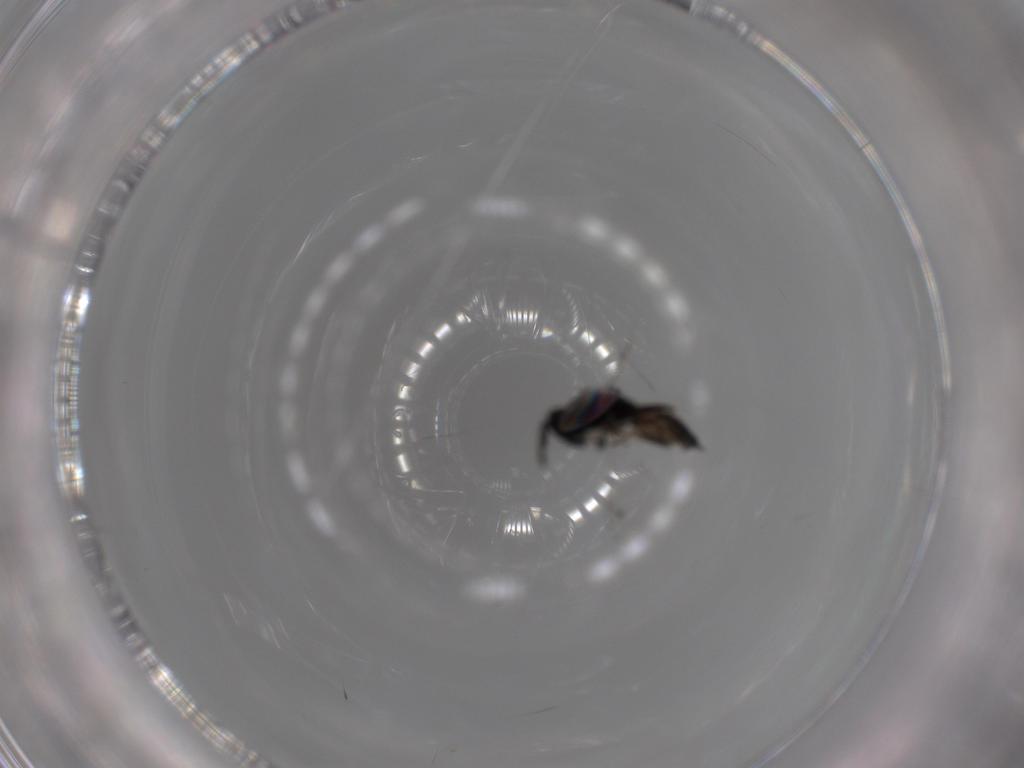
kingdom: Animalia
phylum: Arthropoda
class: Insecta
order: Hymenoptera
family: Pteromalidae
